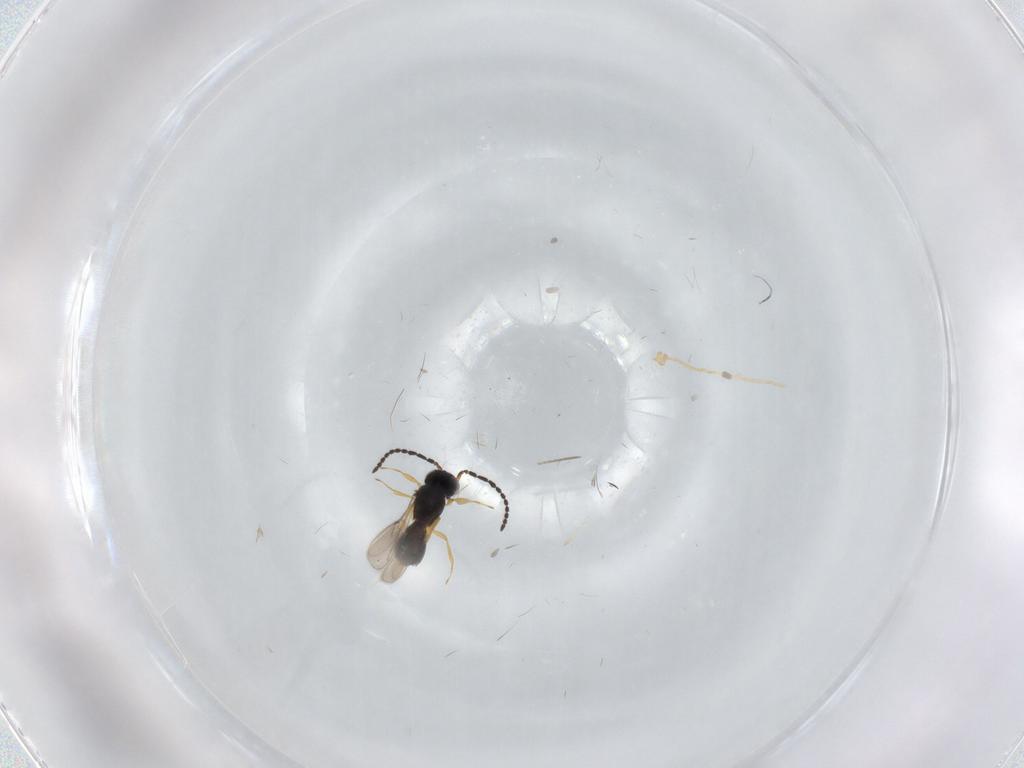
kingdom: Animalia
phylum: Arthropoda
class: Insecta
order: Hymenoptera
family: Scelionidae
